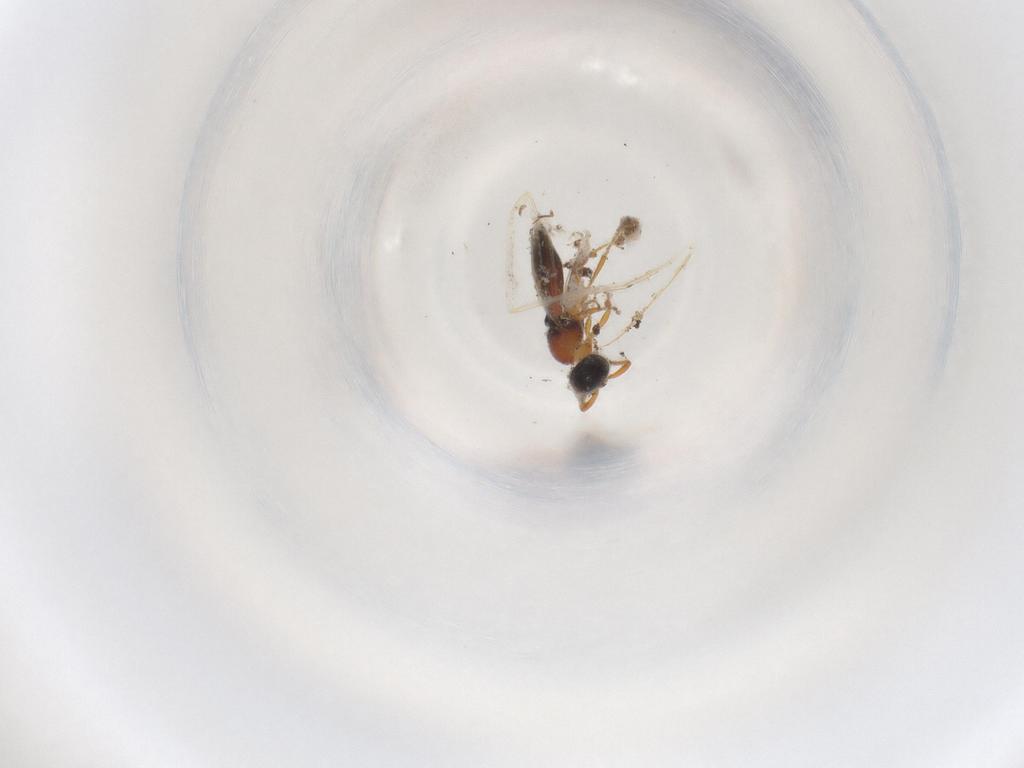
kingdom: Animalia
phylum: Arthropoda
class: Insecta
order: Hymenoptera
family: Scelionidae
